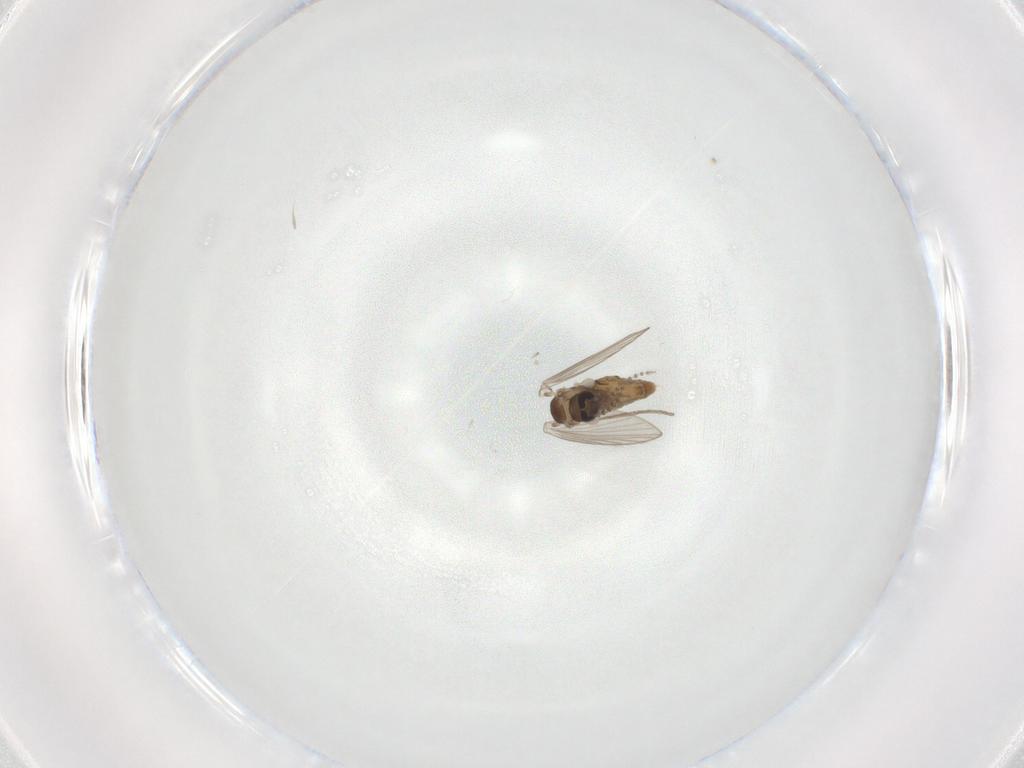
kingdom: Animalia
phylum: Arthropoda
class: Insecta
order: Diptera
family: Psychodidae
